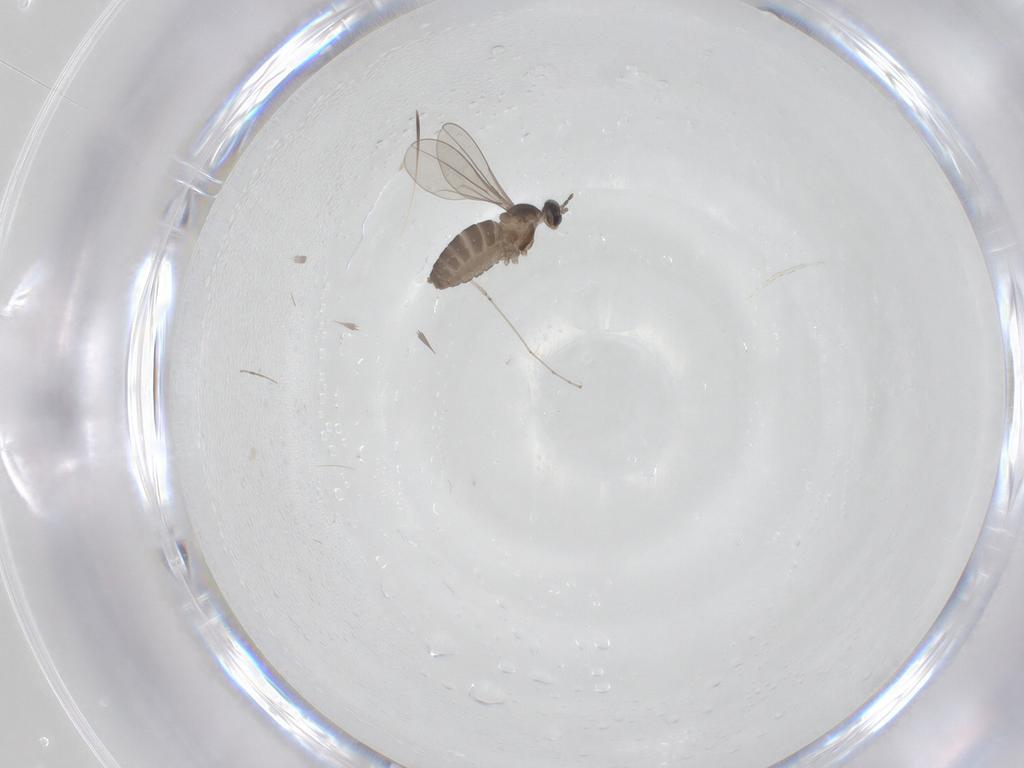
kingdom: Animalia
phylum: Arthropoda
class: Insecta
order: Diptera
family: Cecidomyiidae
